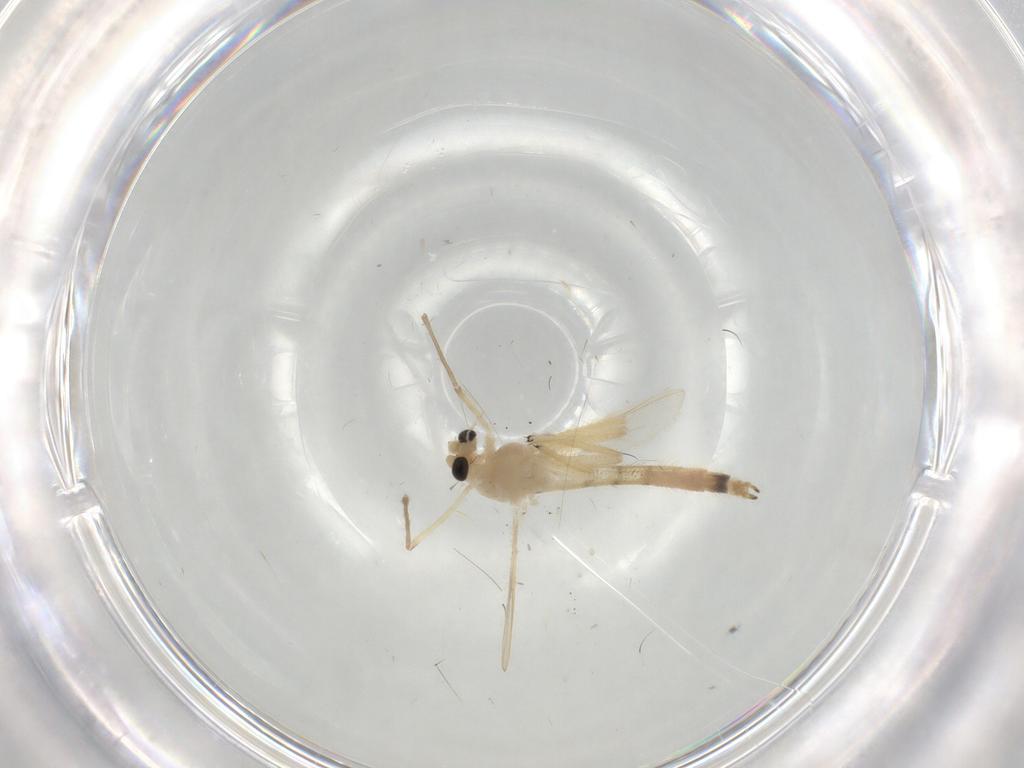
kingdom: Animalia
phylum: Arthropoda
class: Insecta
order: Diptera
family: Chironomidae
